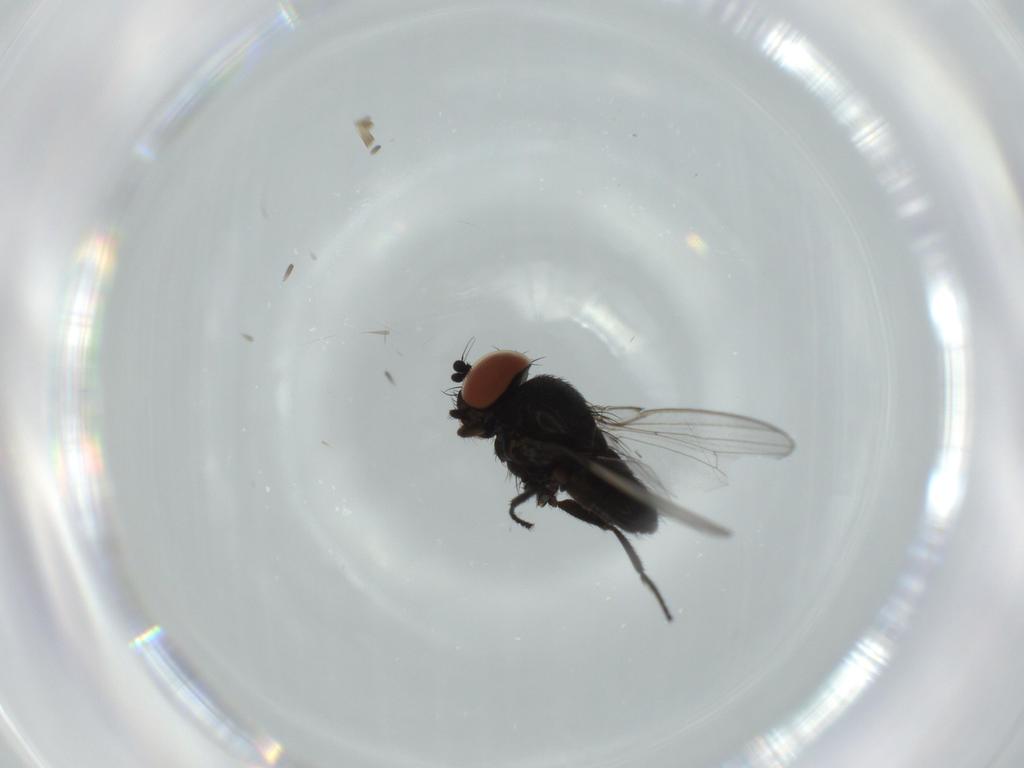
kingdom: Animalia
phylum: Arthropoda
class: Insecta
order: Diptera
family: Milichiidae
